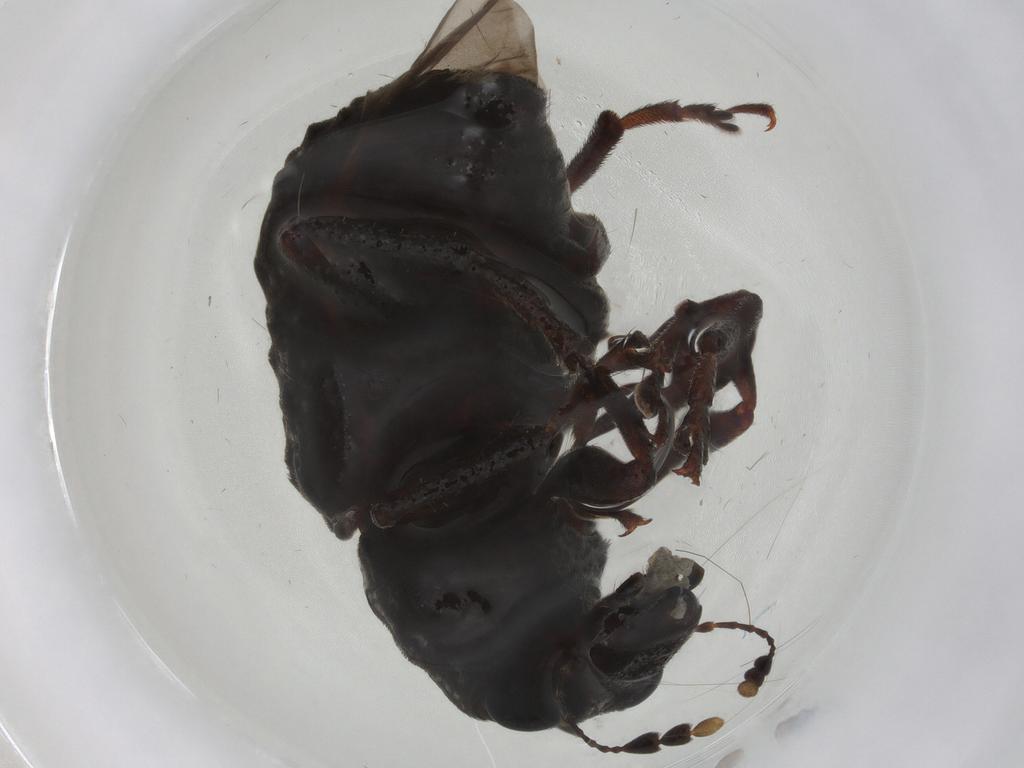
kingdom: Animalia
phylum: Arthropoda
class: Insecta
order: Coleoptera
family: Anthribidae
